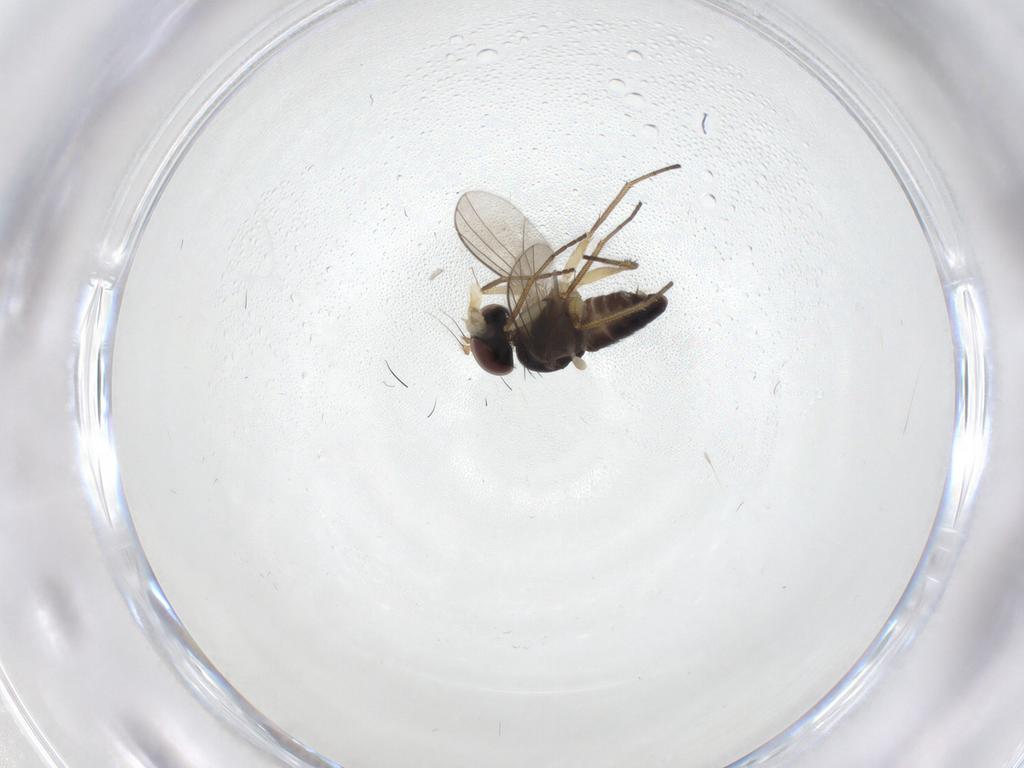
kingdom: Animalia
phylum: Arthropoda
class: Insecta
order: Diptera
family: Dolichopodidae
